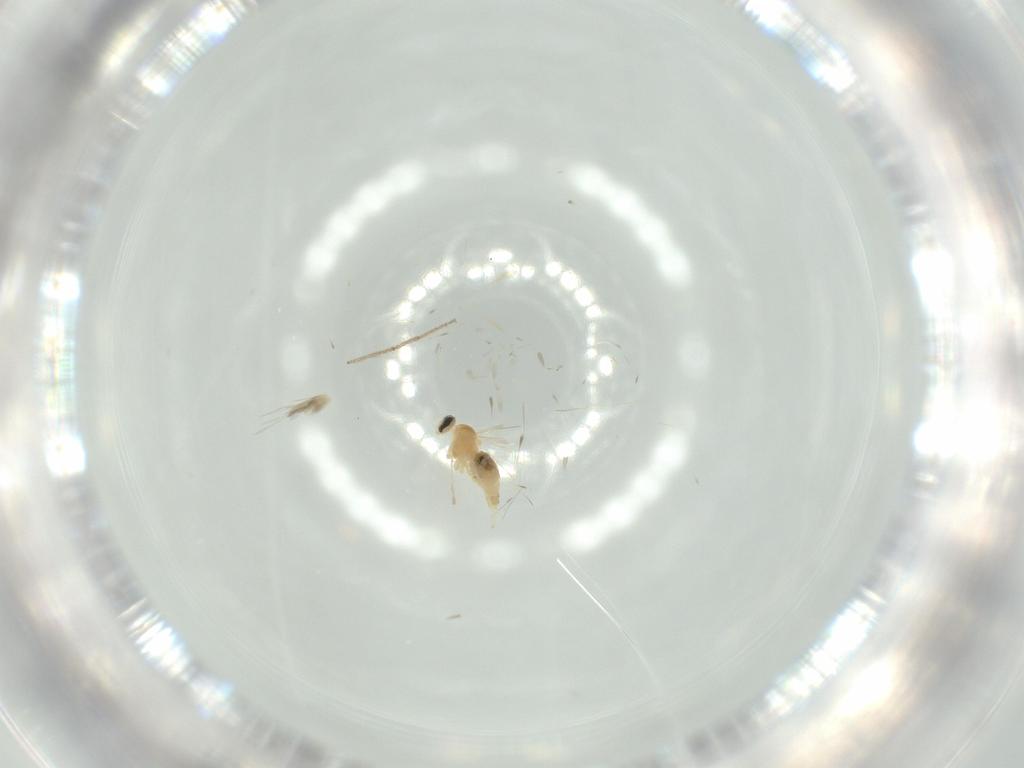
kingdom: Animalia
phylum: Arthropoda
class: Insecta
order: Diptera
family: Cecidomyiidae
